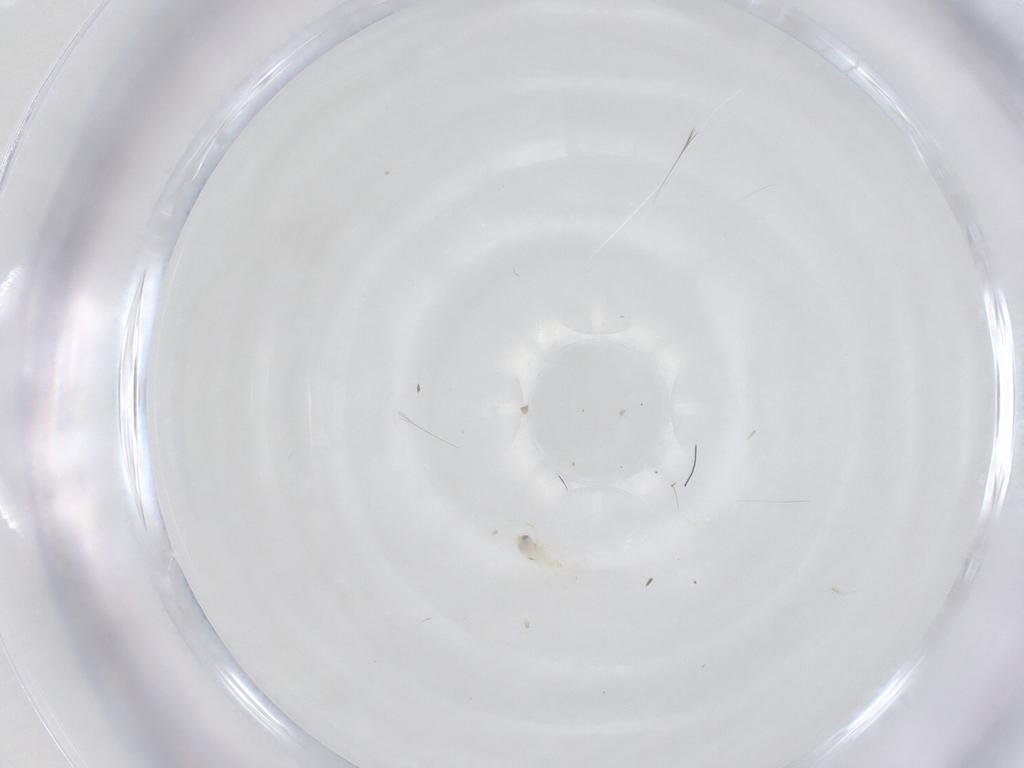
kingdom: Animalia
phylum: Arthropoda
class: Insecta
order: Hemiptera
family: Aleyrodidae
